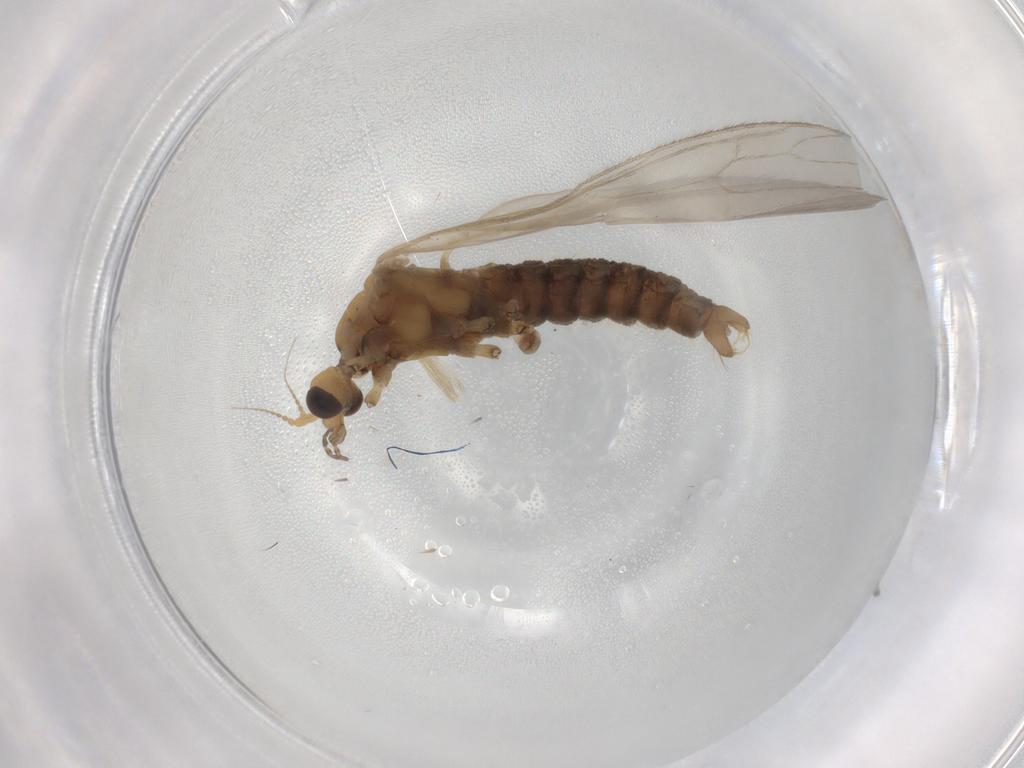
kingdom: Animalia
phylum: Arthropoda
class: Insecta
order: Diptera
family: Limoniidae
